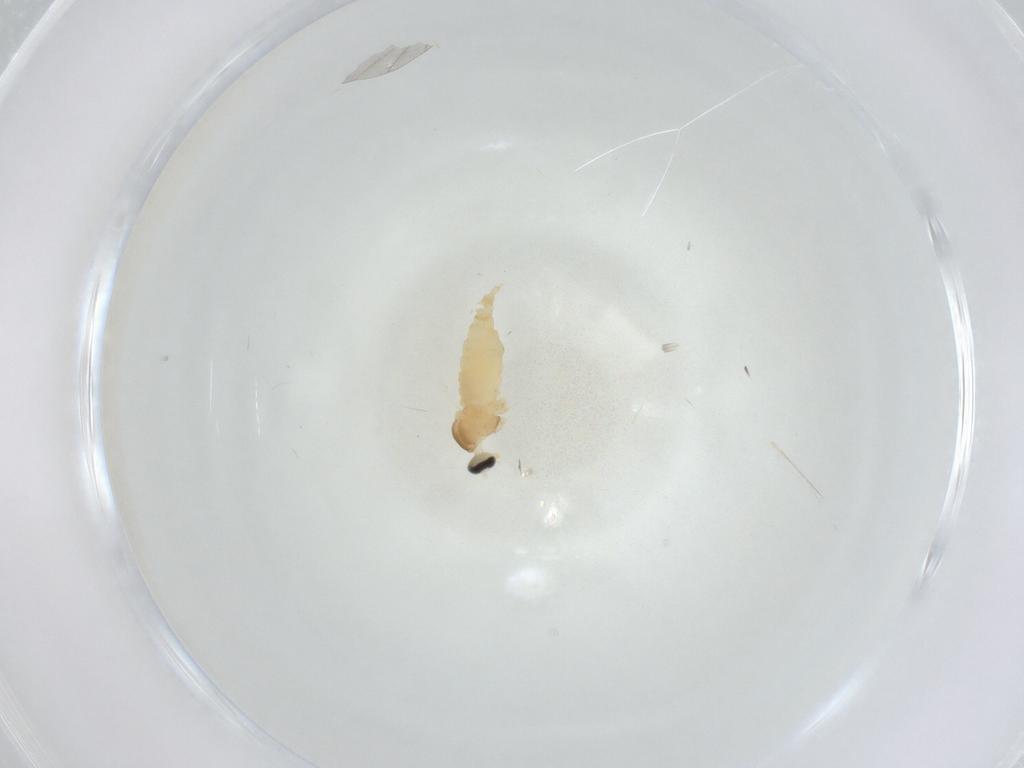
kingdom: Animalia
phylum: Arthropoda
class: Insecta
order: Diptera
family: Cecidomyiidae
